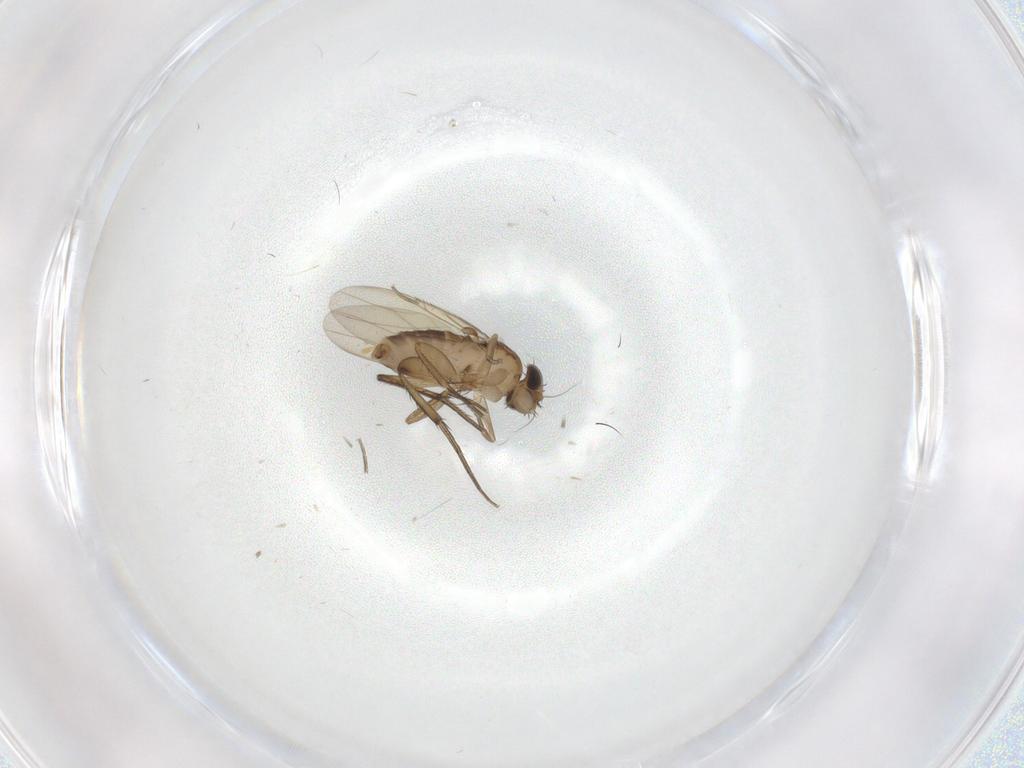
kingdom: Animalia
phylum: Arthropoda
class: Insecta
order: Diptera
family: Phoridae
